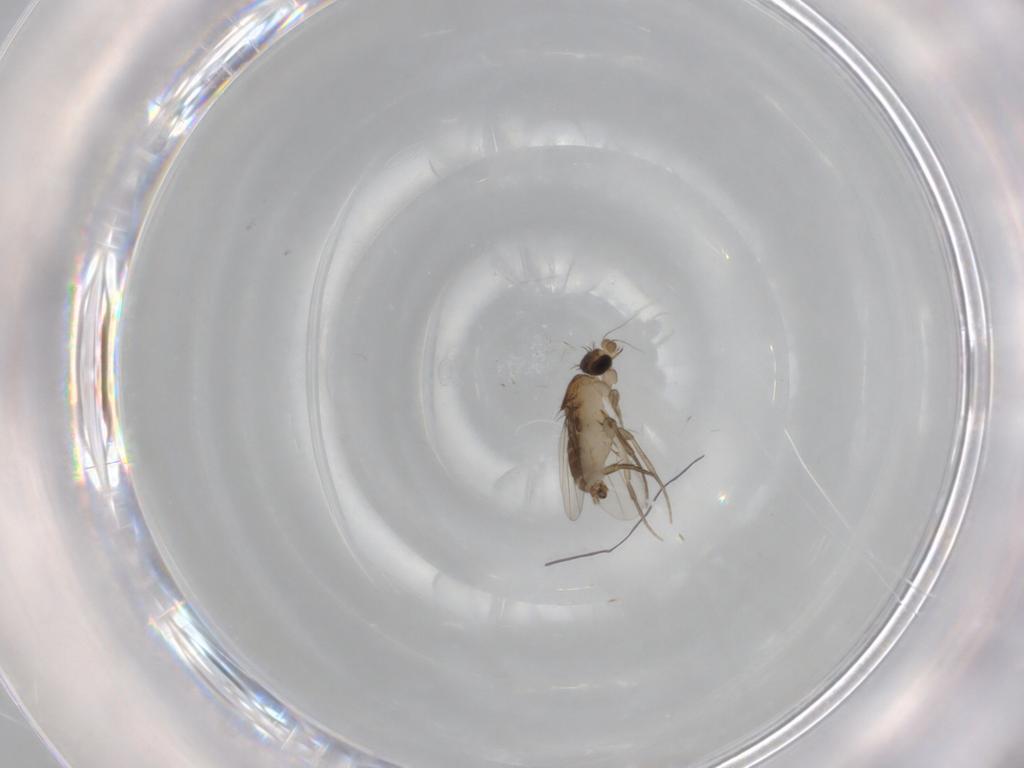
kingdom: Animalia
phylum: Arthropoda
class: Insecta
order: Diptera
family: Phoridae
